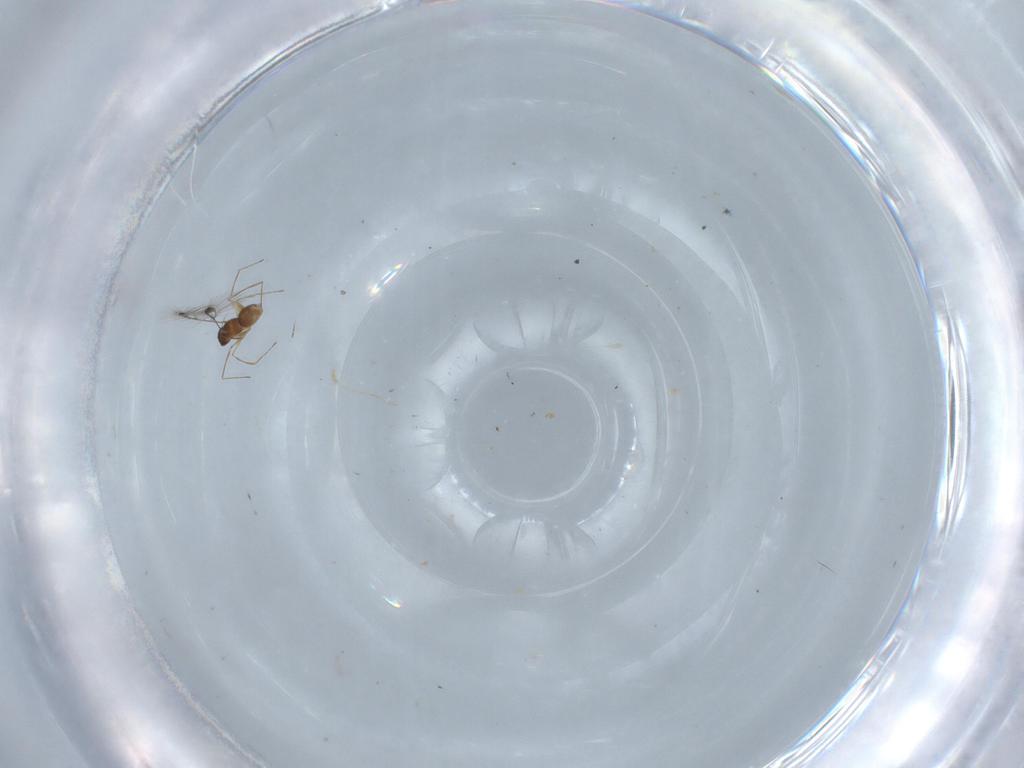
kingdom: Animalia
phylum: Arthropoda
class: Insecta
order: Hymenoptera
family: Mymaridae
